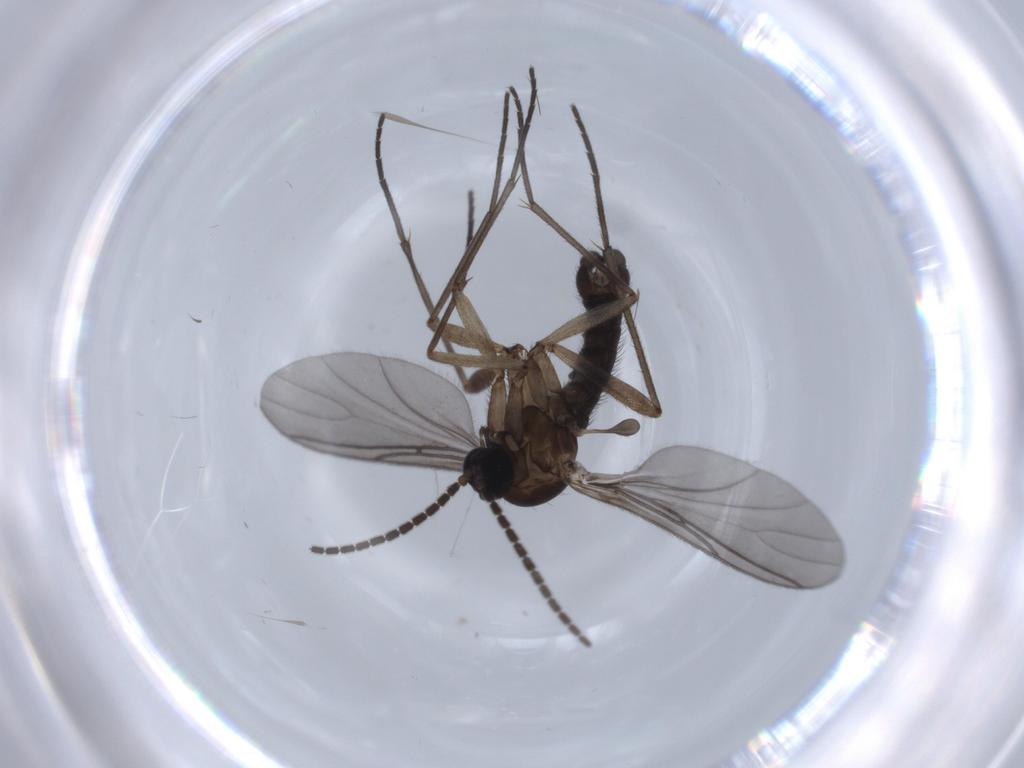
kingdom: Animalia
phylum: Arthropoda
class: Insecta
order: Diptera
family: Sciaridae
